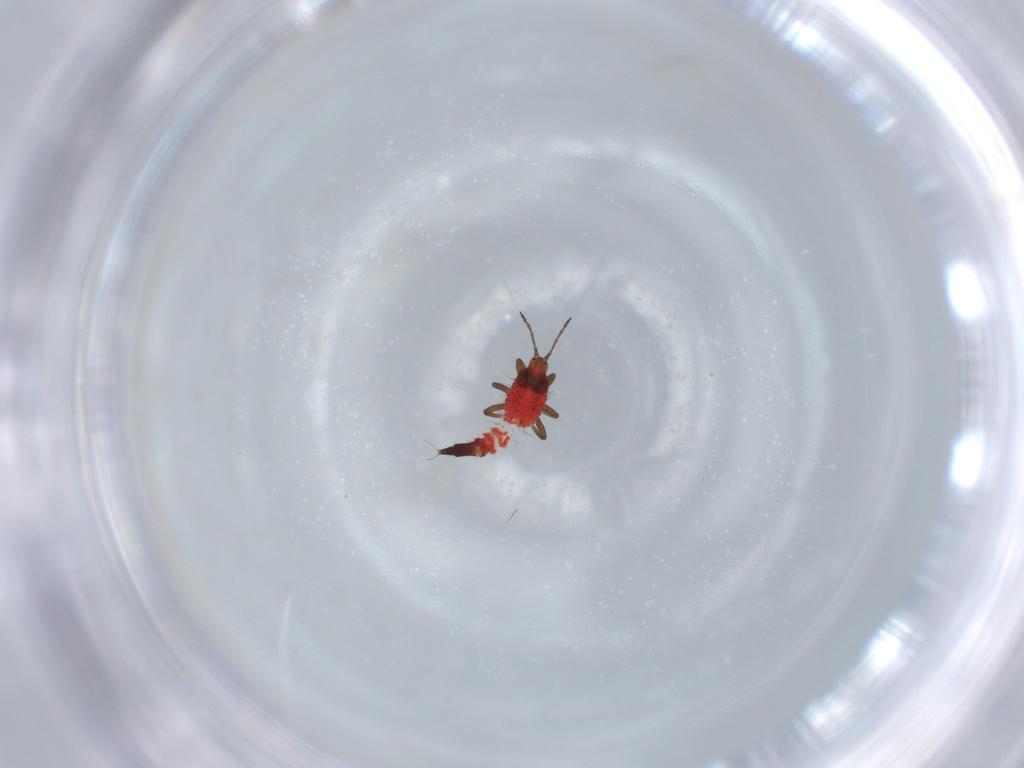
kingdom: Animalia
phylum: Arthropoda
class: Insecta
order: Thysanoptera
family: Phlaeothripidae
